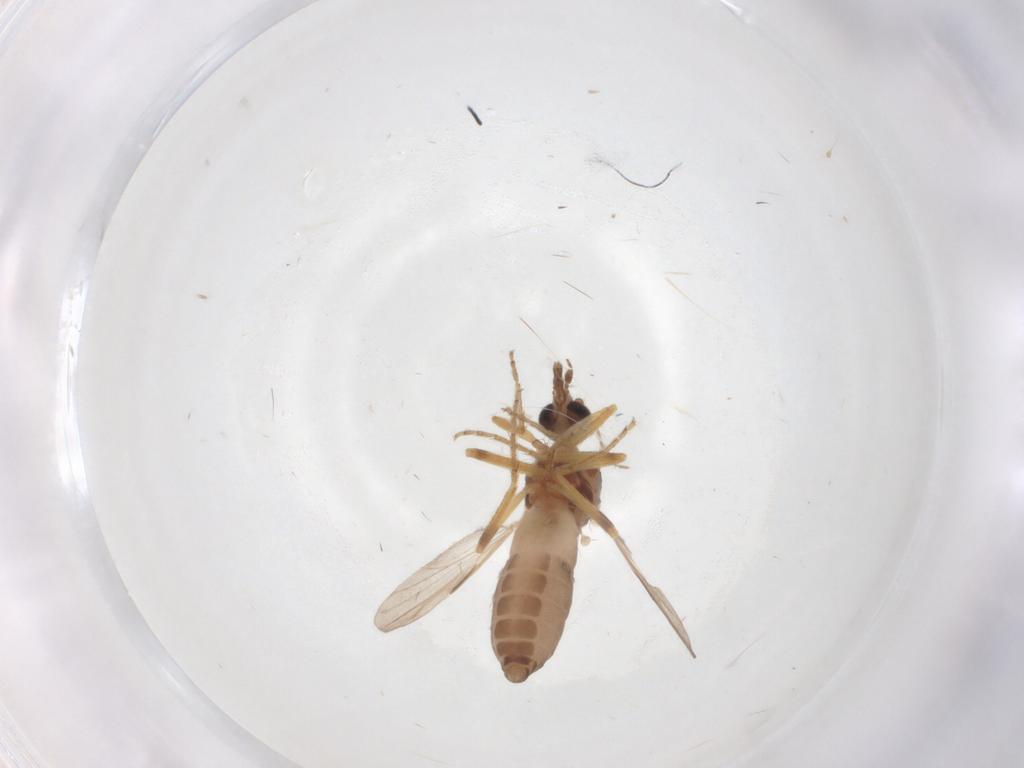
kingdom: Animalia
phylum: Arthropoda
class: Insecta
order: Diptera
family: Ceratopogonidae
